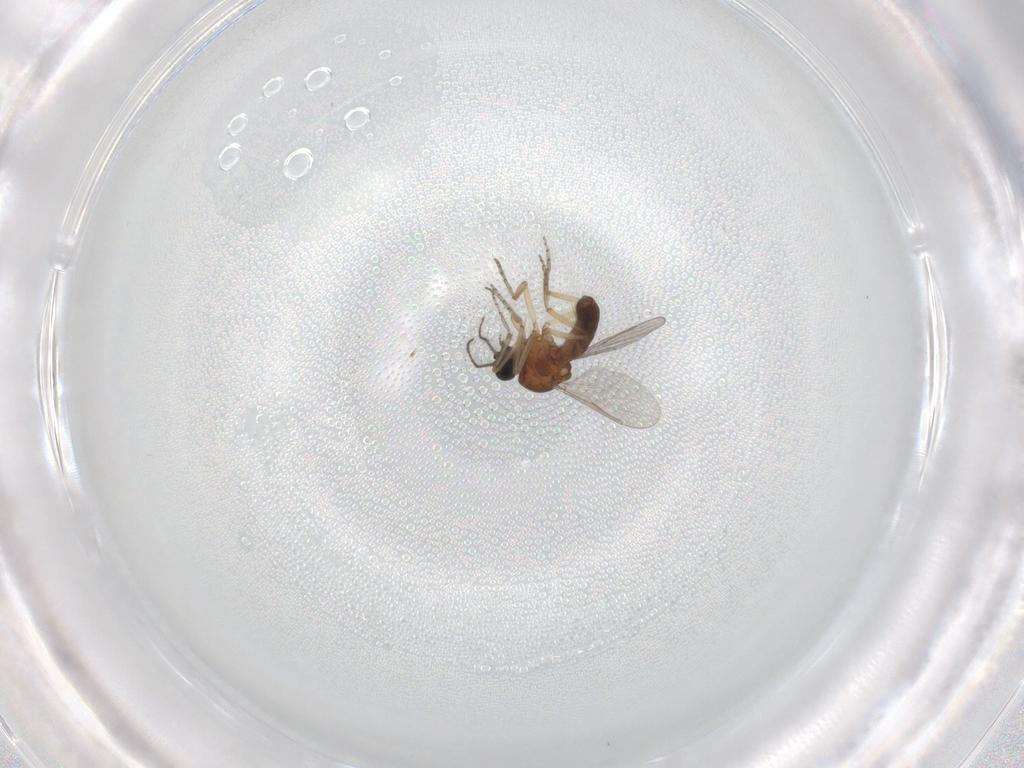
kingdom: Animalia
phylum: Arthropoda
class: Insecta
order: Diptera
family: Ceratopogonidae
